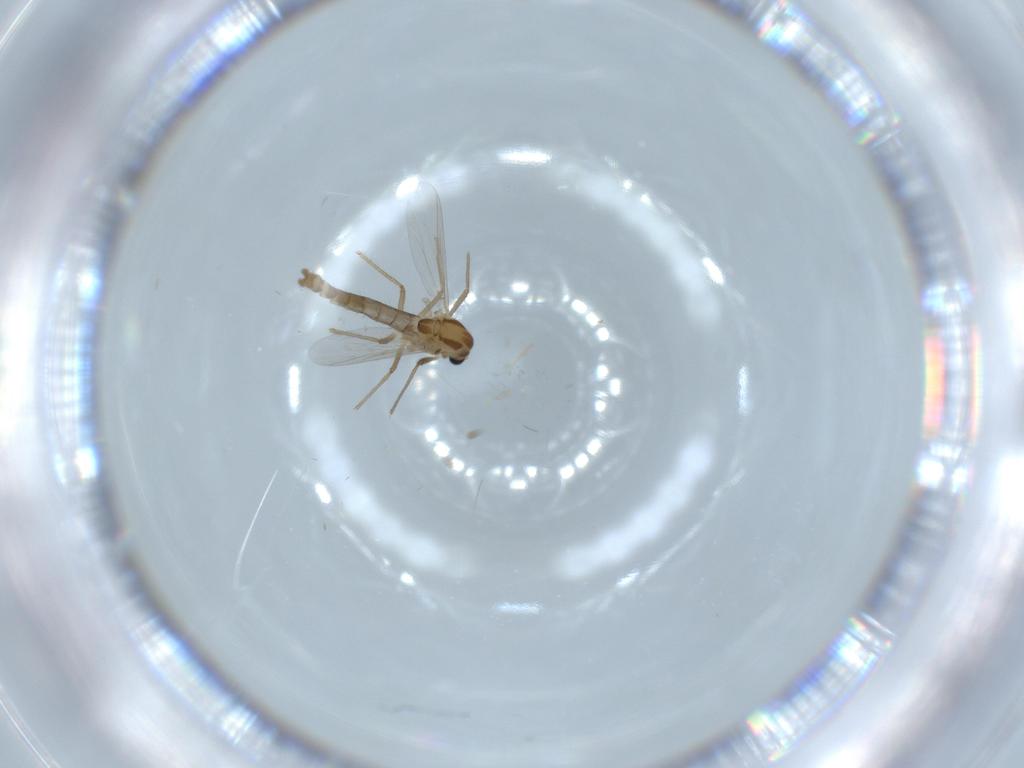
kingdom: Animalia
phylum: Arthropoda
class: Insecta
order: Diptera
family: Chironomidae
